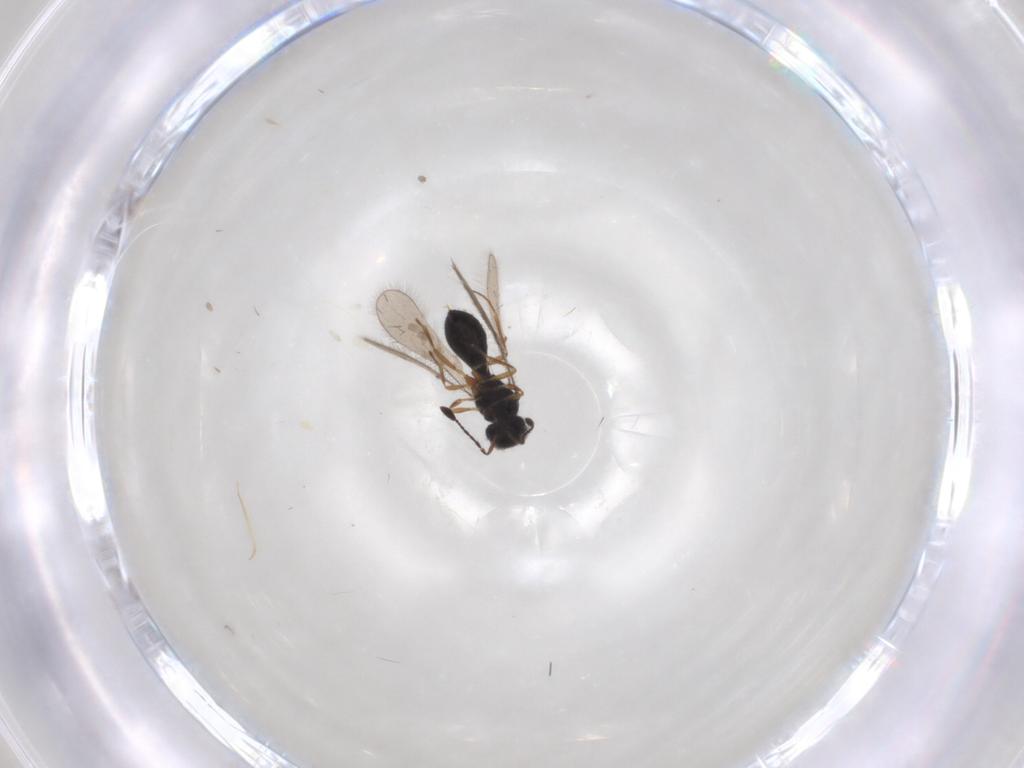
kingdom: Animalia
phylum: Arthropoda
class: Insecta
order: Hymenoptera
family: Scelionidae
